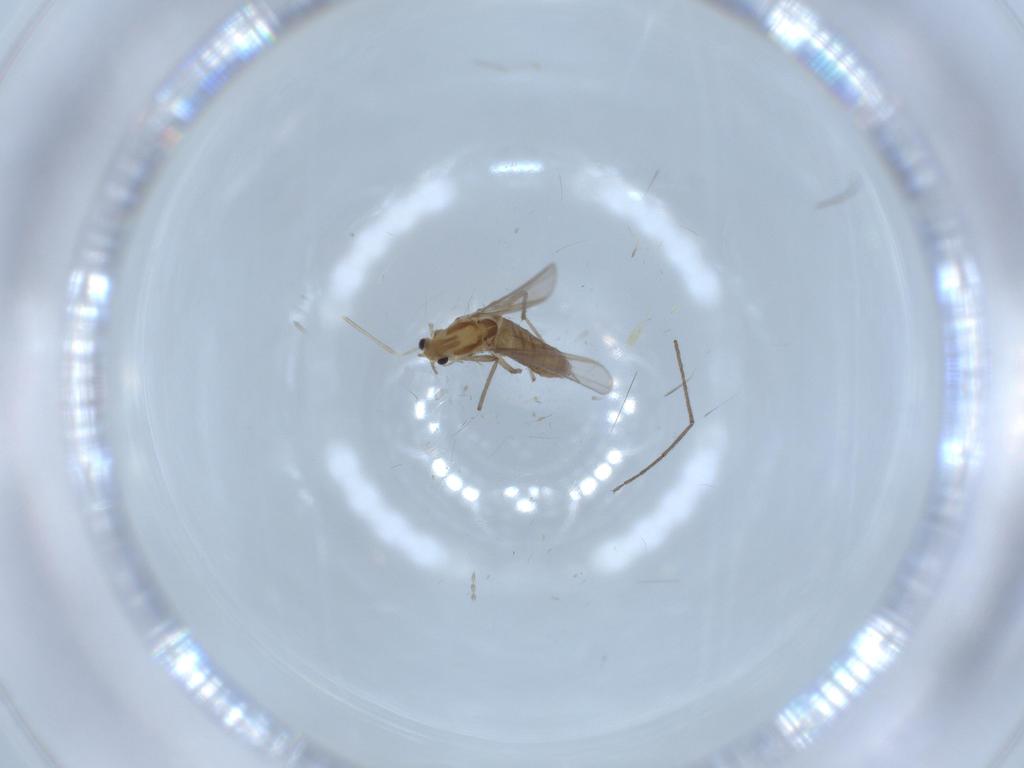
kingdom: Animalia
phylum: Arthropoda
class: Insecta
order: Diptera
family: Chironomidae
